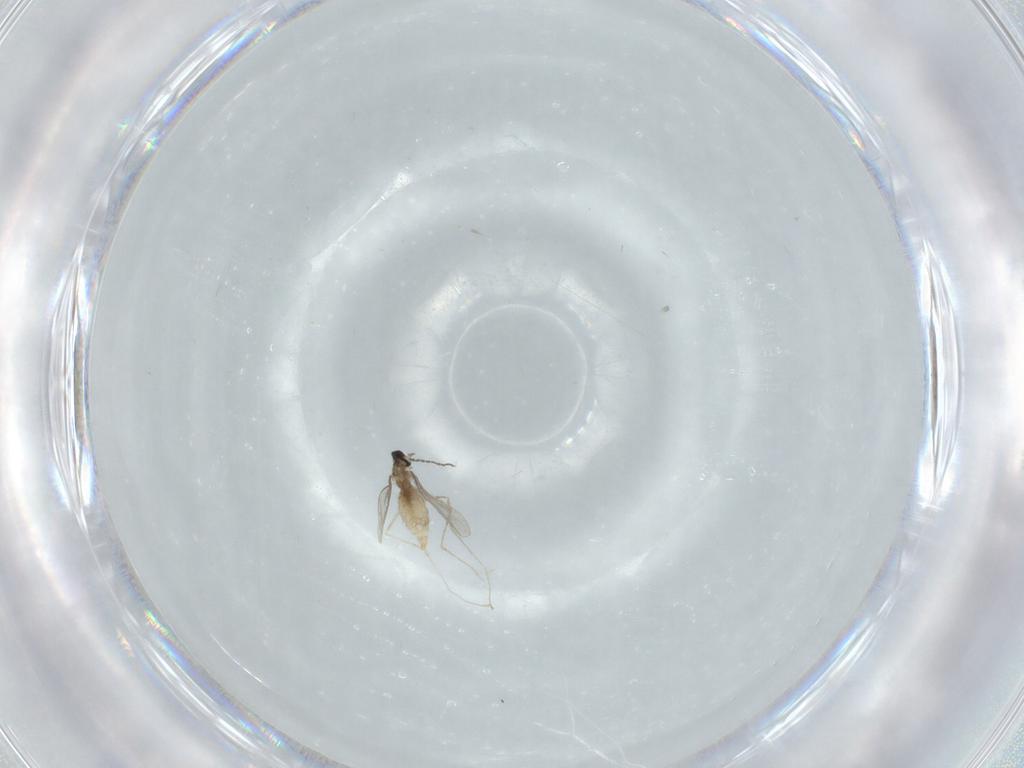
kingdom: Animalia
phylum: Arthropoda
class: Insecta
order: Diptera
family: Cecidomyiidae
